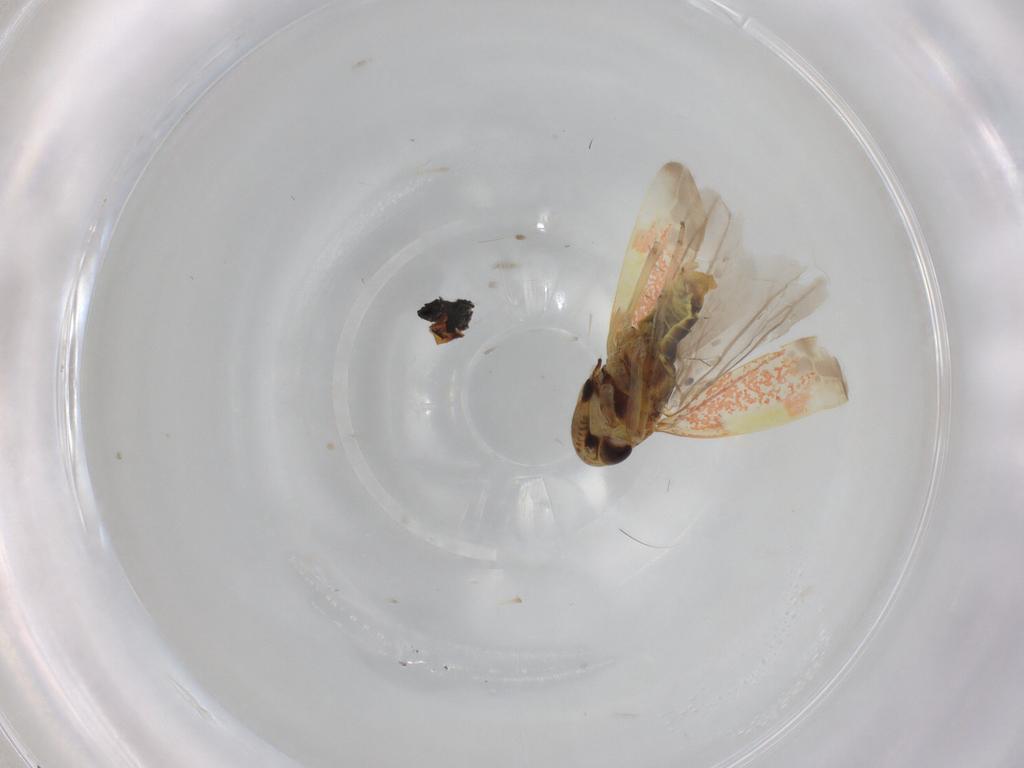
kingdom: Animalia
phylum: Arthropoda
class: Insecta
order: Hemiptera
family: Cicadellidae
